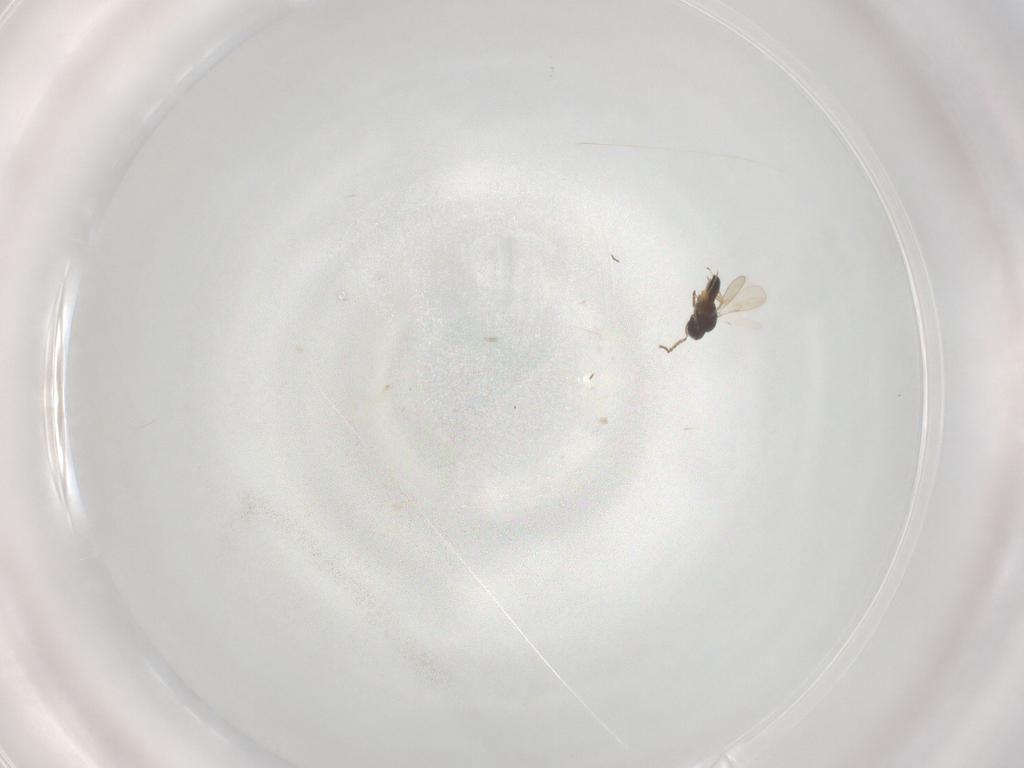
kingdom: Animalia
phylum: Arthropoda
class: Insecta
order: Hymenoptera
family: Scelionidae
